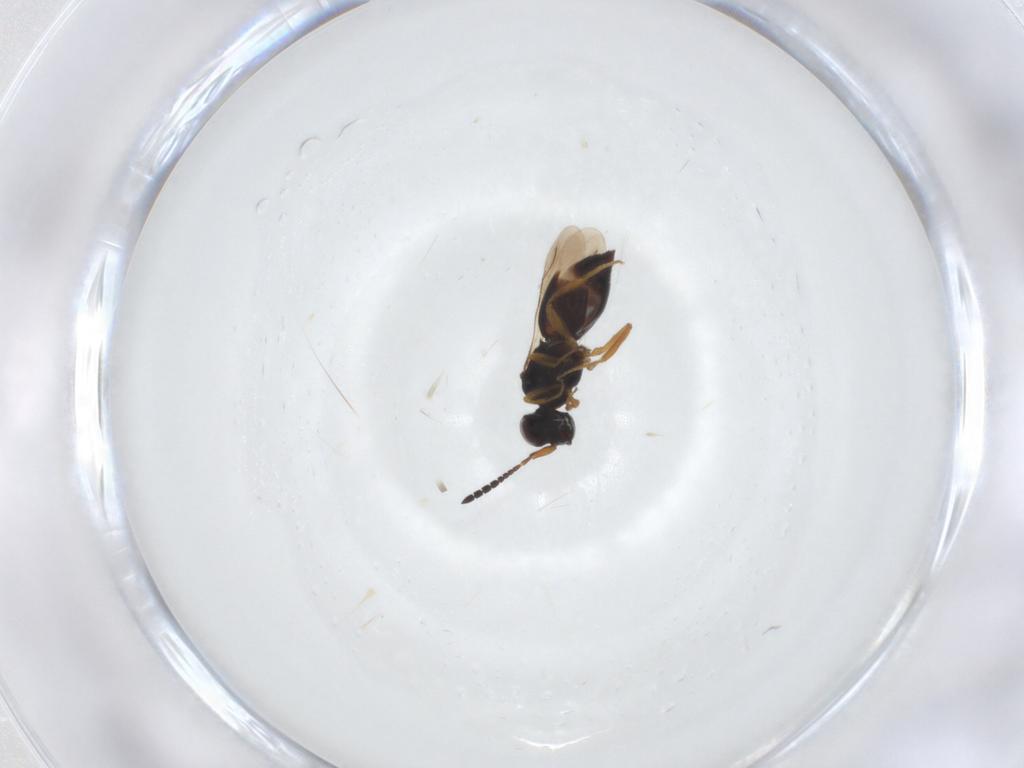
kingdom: Animalia
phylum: Arthropoda
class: Insecta
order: Hymenoptera
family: Ceraphronidae
